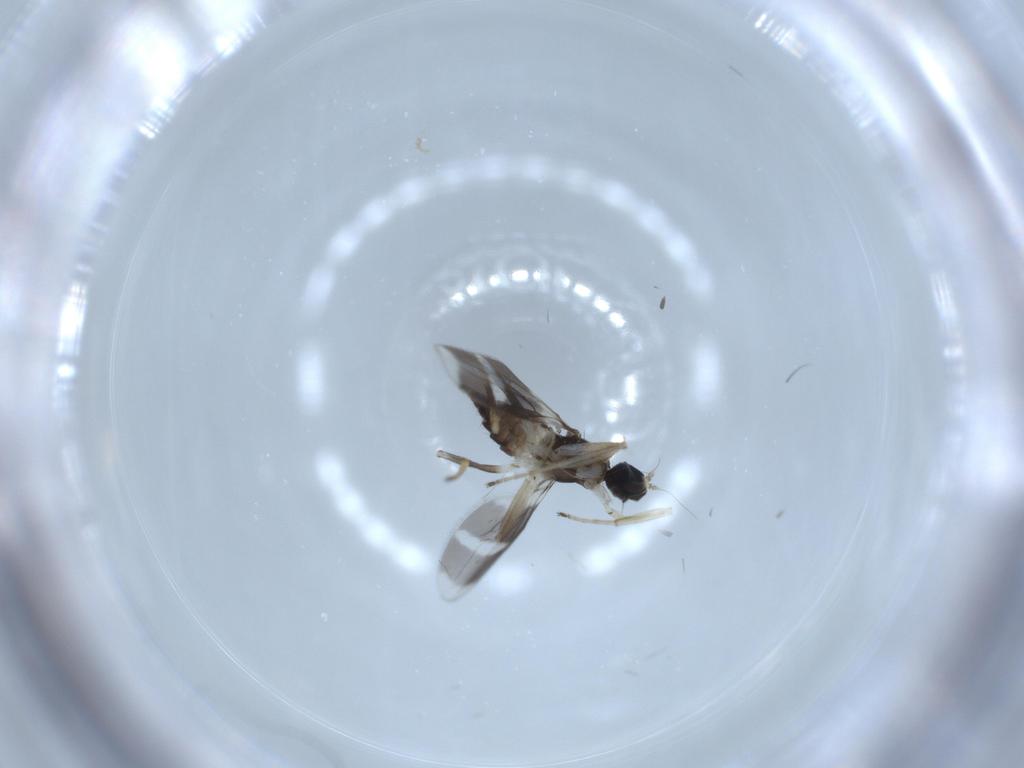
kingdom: Animalia
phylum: Arthropoda
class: Insecta
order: Diptera
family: Hybotidae
